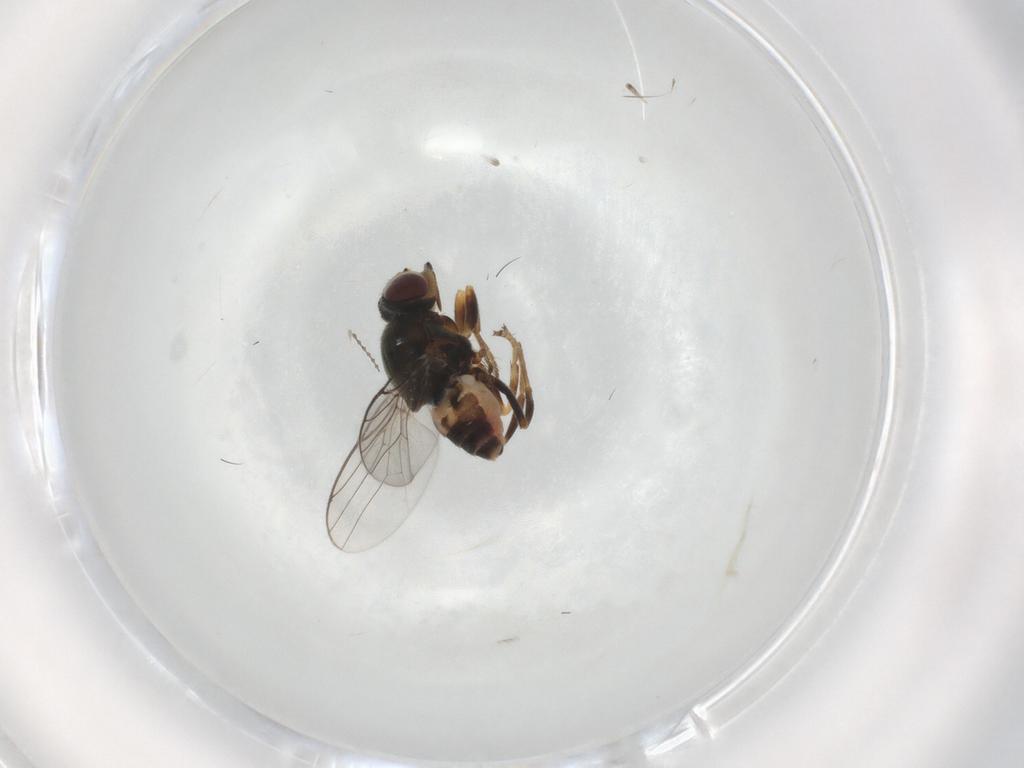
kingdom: Animalia
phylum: Arthropoda
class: Insecta
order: Diptera
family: Chloropidae
